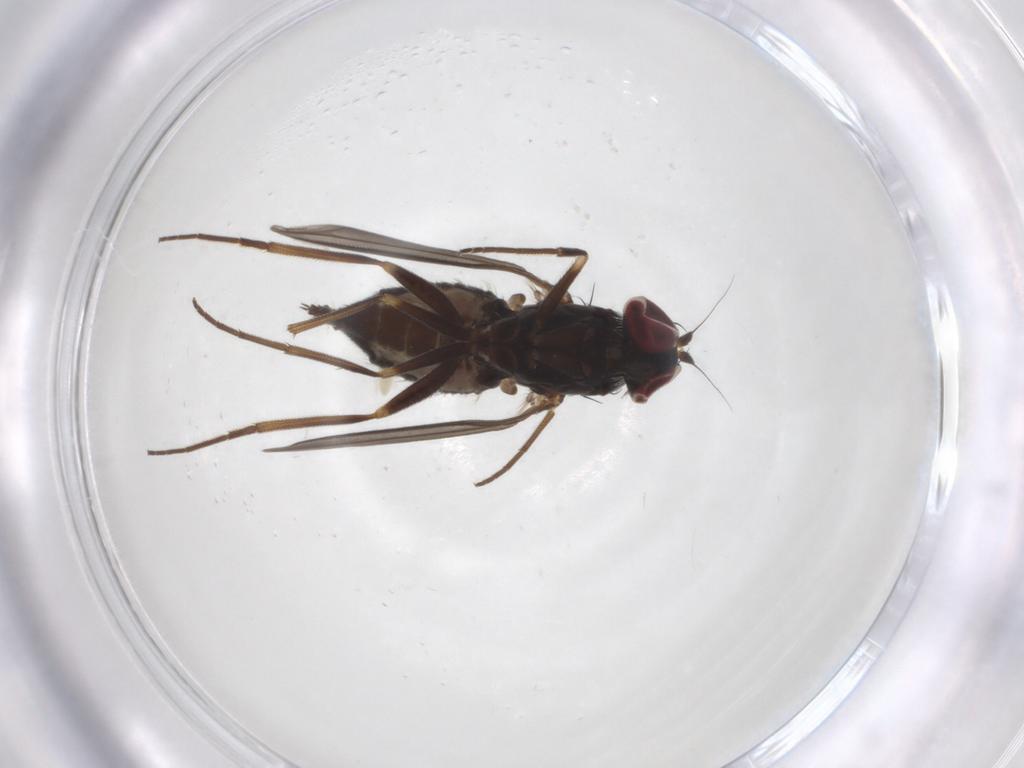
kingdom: Animalia
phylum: Arthropoda
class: Insecta
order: Diptera
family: Dolichopodidae
